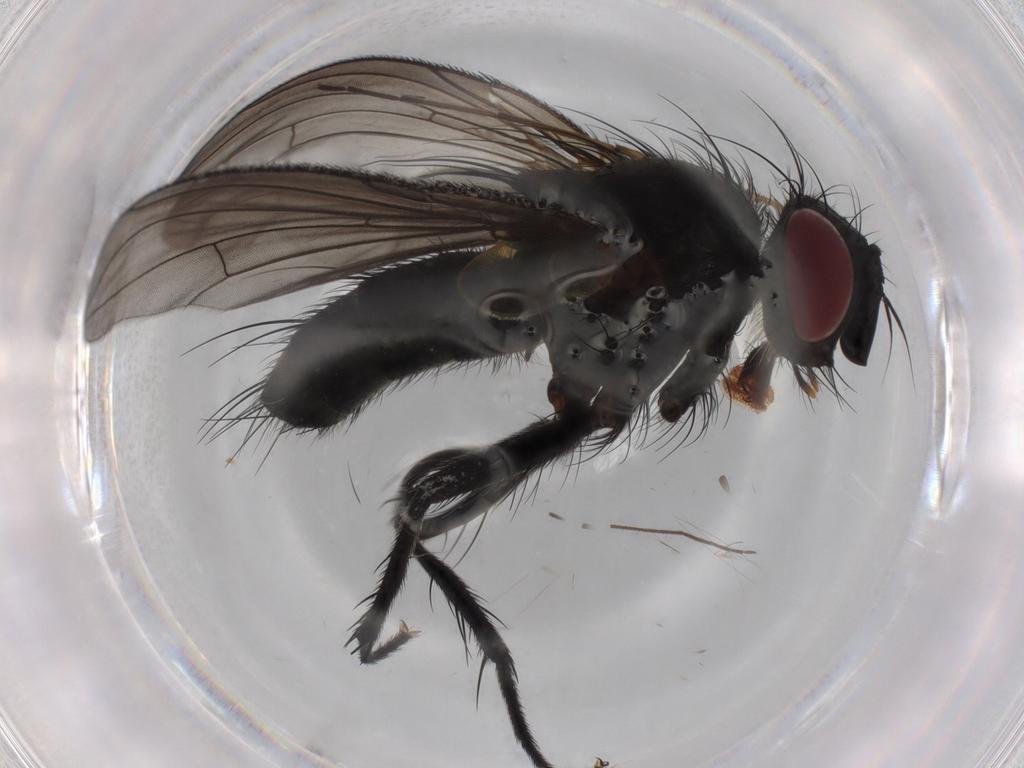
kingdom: Animalia
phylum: Arthropoda
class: Insecta
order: Diptera
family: Tachinidae
